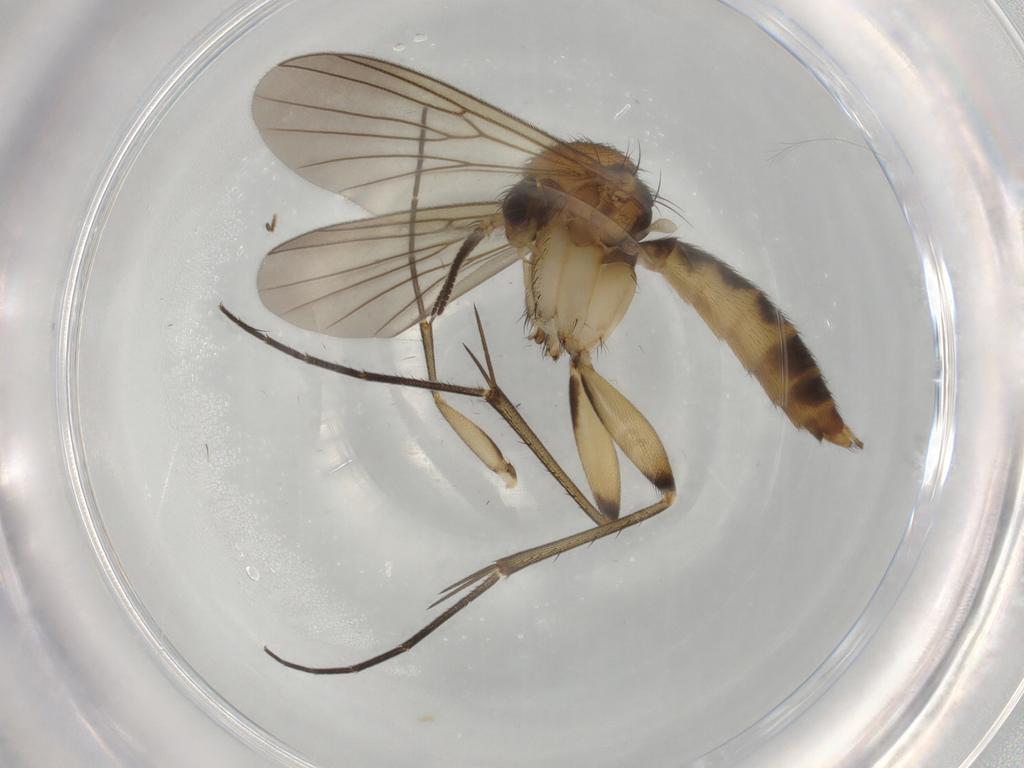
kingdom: Animalia
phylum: Arthropoda
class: Insecta
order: Diptera
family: Mycetophilidae
